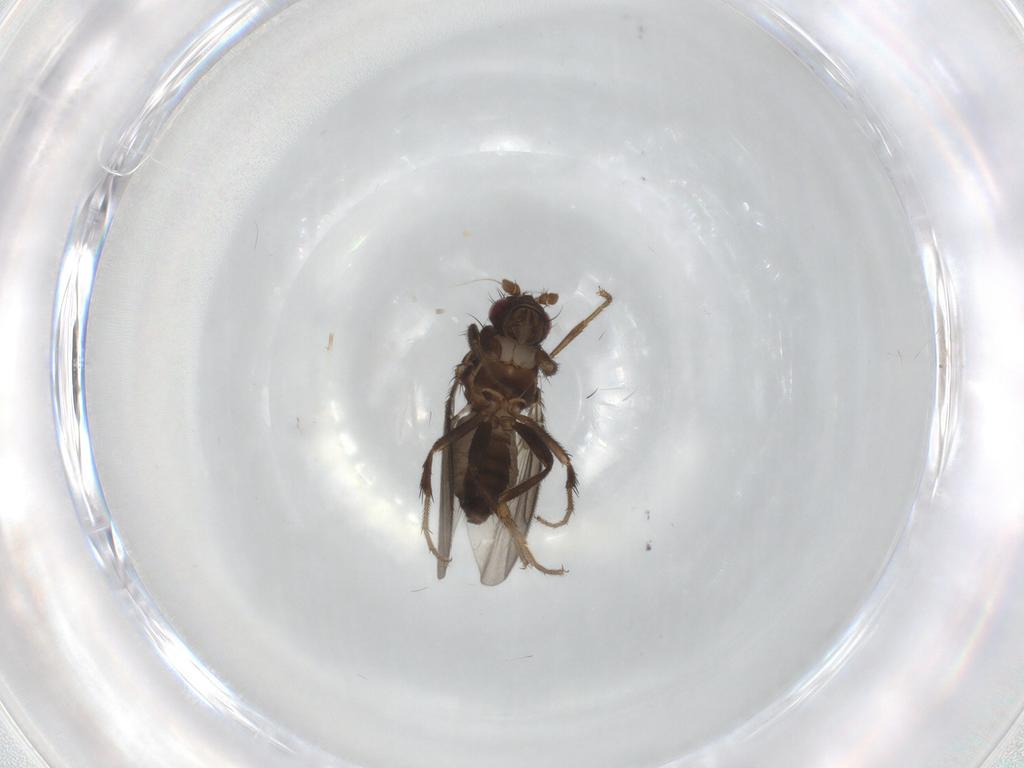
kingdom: Animalia
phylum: Arthropoda
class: Insecta
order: Diptera
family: Sphaeroceridae
